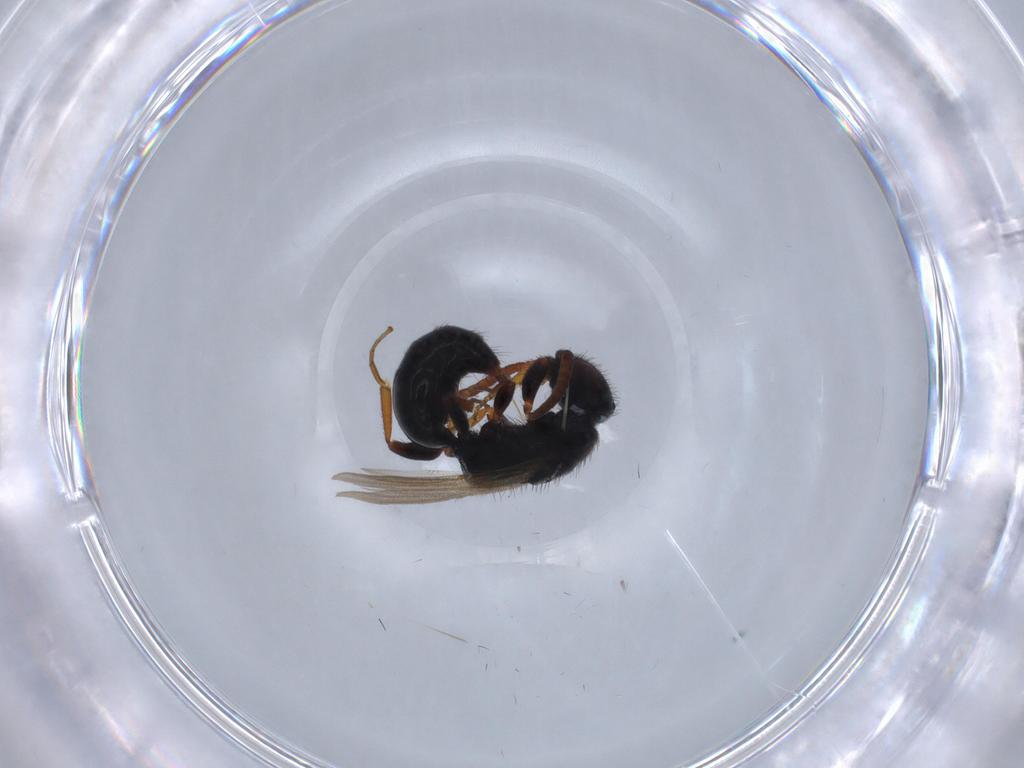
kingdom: Animalia
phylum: Arthropoda
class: Insecta
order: Hymenoptera
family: Bethylidae
